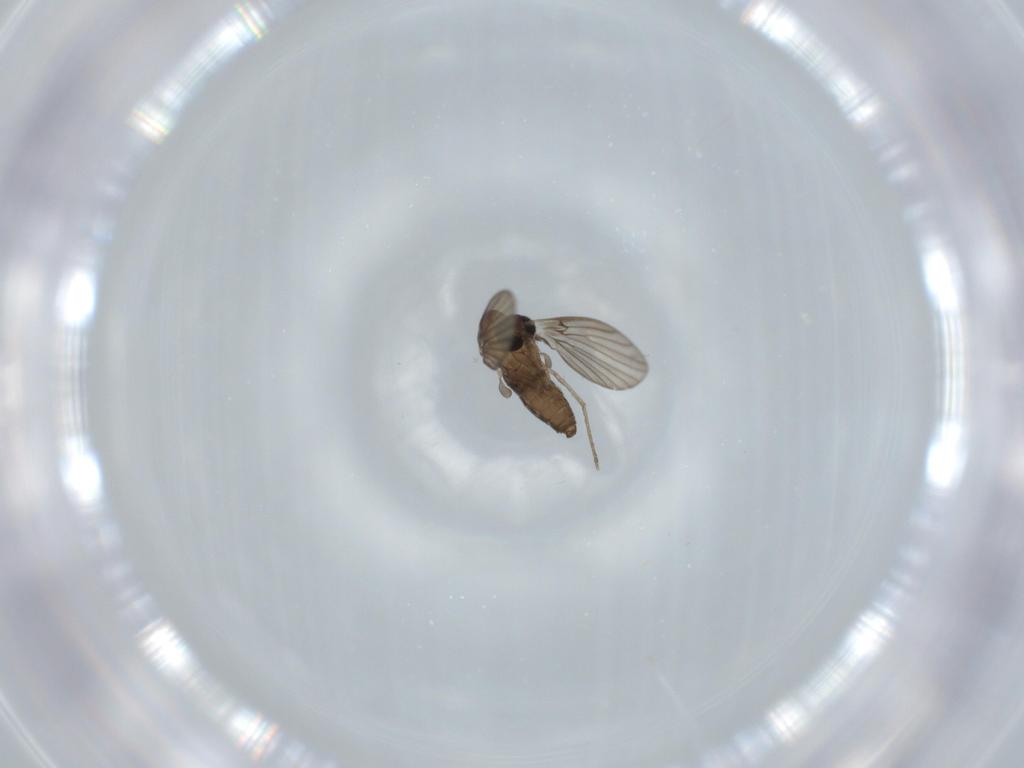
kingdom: Animalia
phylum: Arthropoda
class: Insecta
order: Diptera
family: Psychodidae
